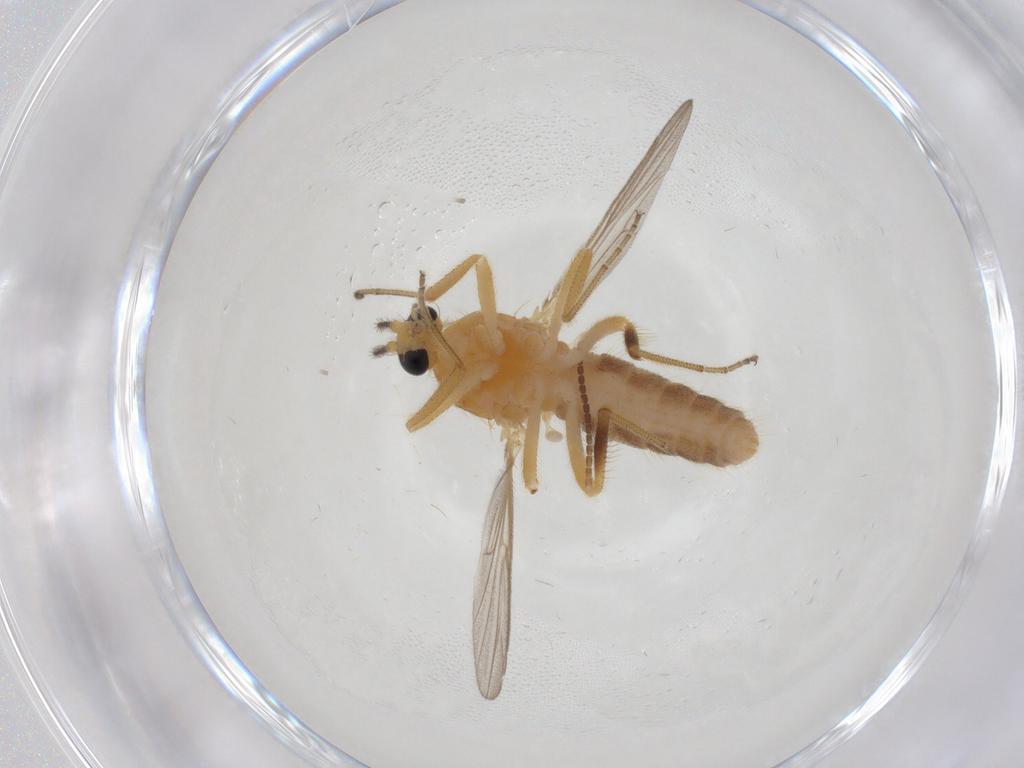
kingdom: Animalia
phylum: Arthropoda
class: Insecta
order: Diptera
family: Ceratopogonidae
